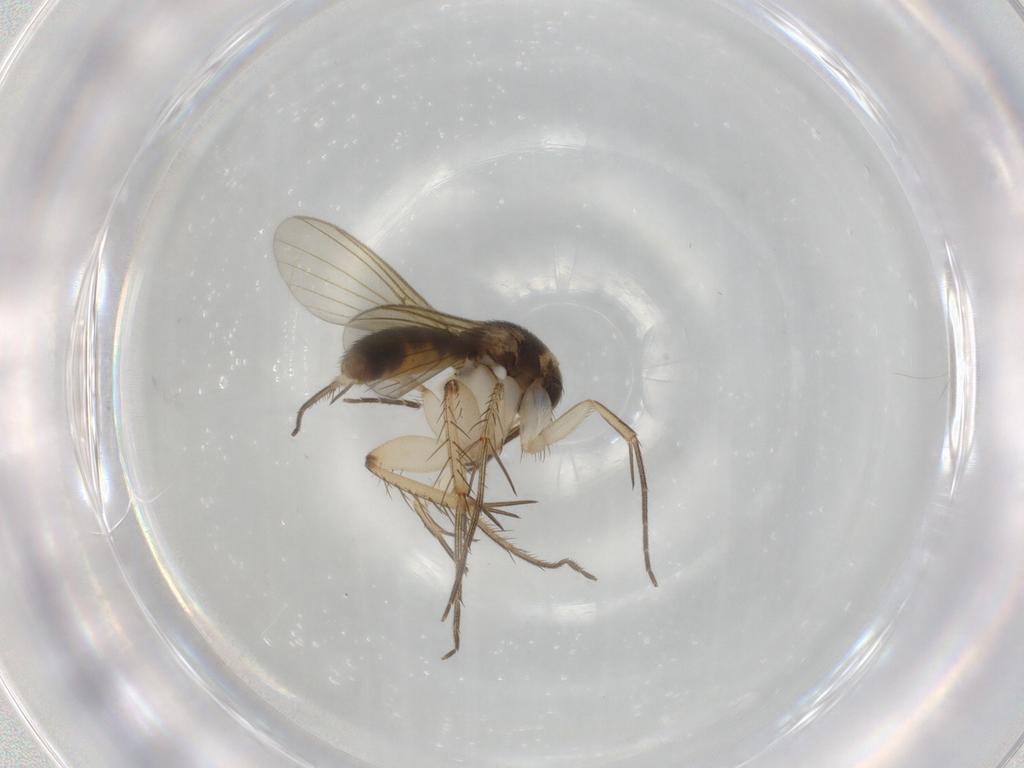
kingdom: Animalia
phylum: Arthropoda
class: Insecta
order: Diptera
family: Mycetophilidae
